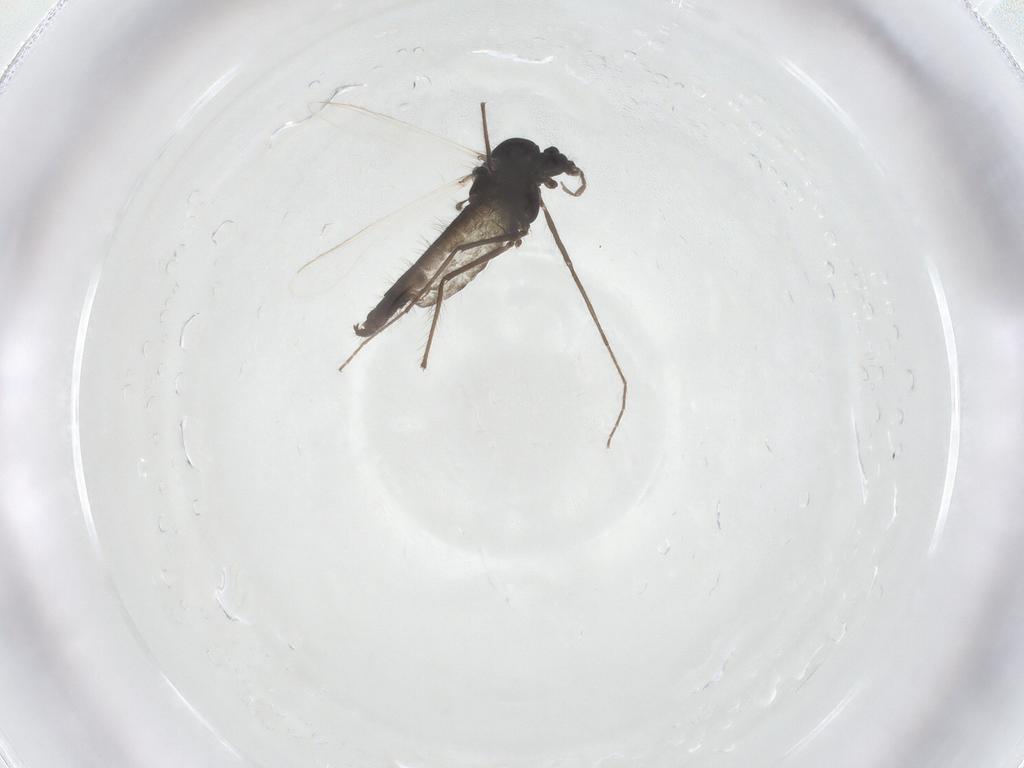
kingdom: Animalia
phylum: Arthropoda
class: Insecta
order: Diptera
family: Chironomidae
